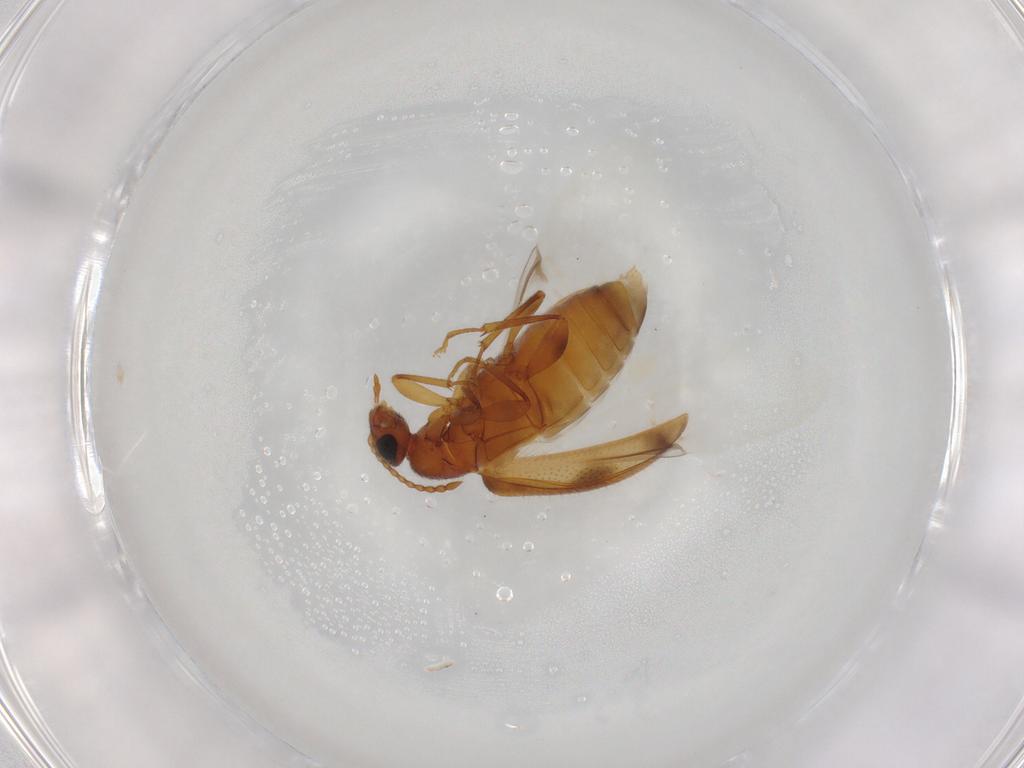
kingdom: Animalia
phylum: Arthropoda
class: Insecta
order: Coleoptera
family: Anthicidae
